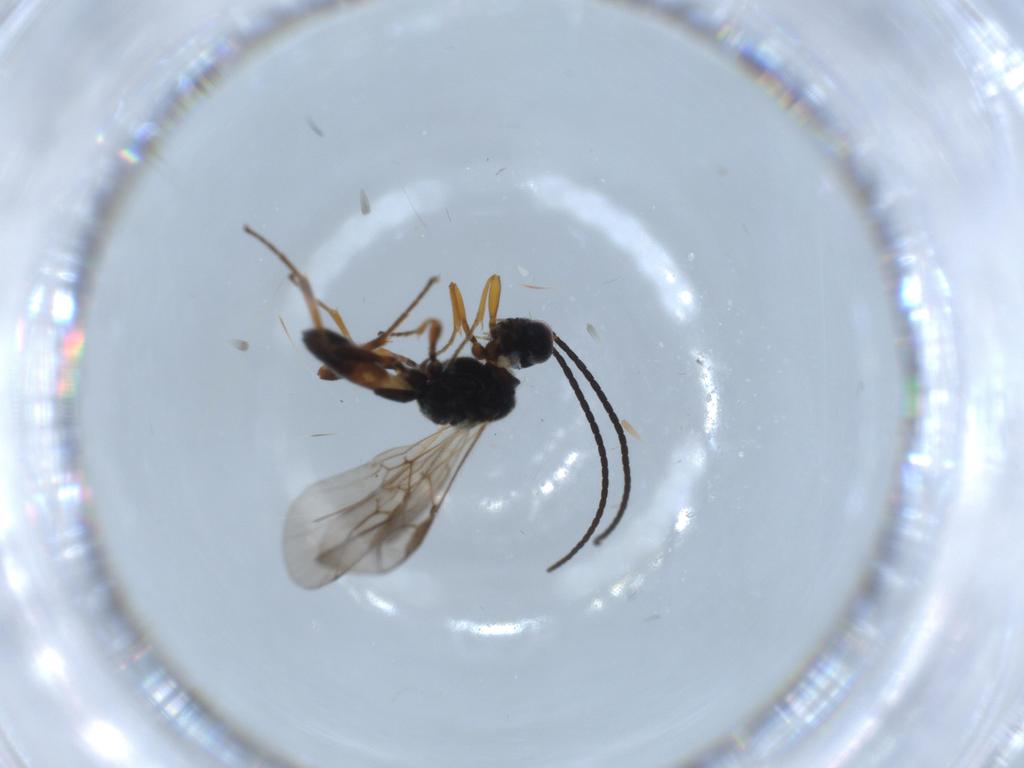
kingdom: Animalia
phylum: Arthropoda
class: Insecta
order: Hymenoptera
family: Braconidae
